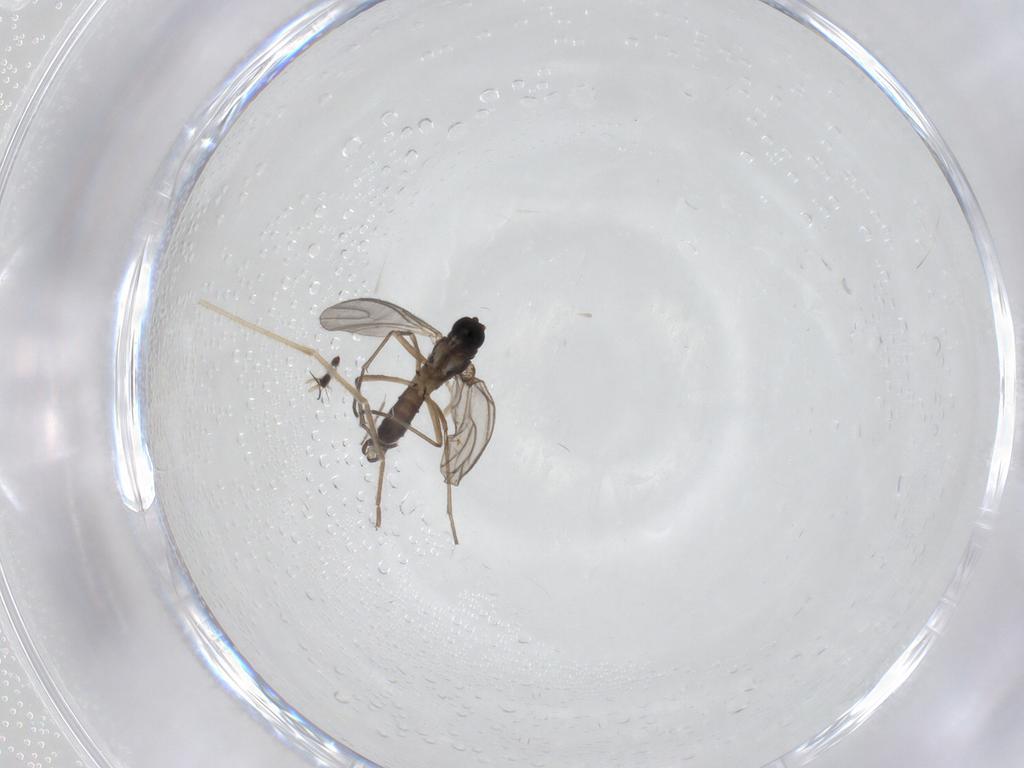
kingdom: Animalia
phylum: Arthropoda
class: Insecta
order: Diptera
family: Sciaridae
